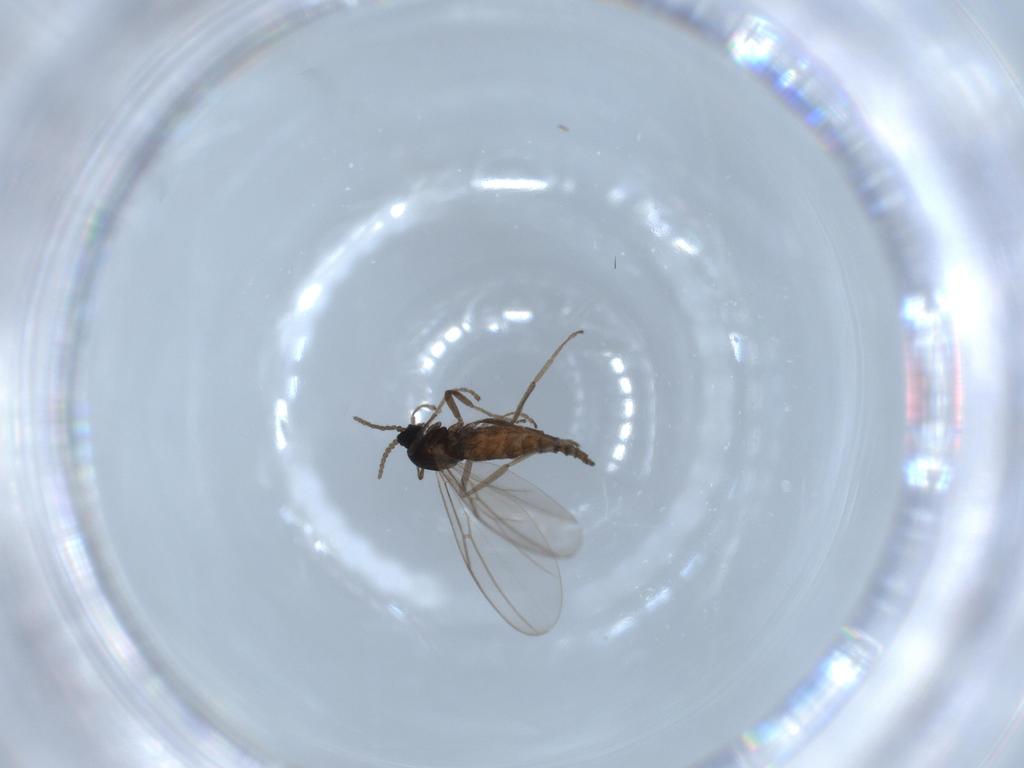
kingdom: Animalia
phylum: Arthropoda
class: Insecta
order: Diptera
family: Cecidomyiidae
